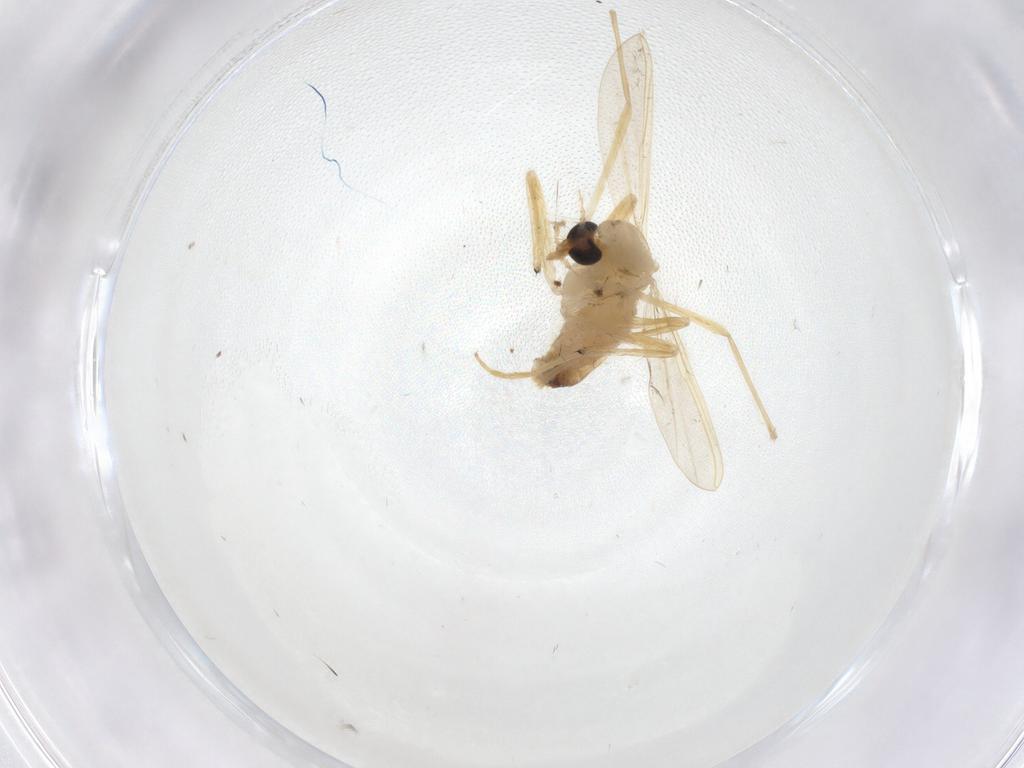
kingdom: Animalia
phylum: Arthropoda
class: Insecta
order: Diptera
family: Chironomidae
